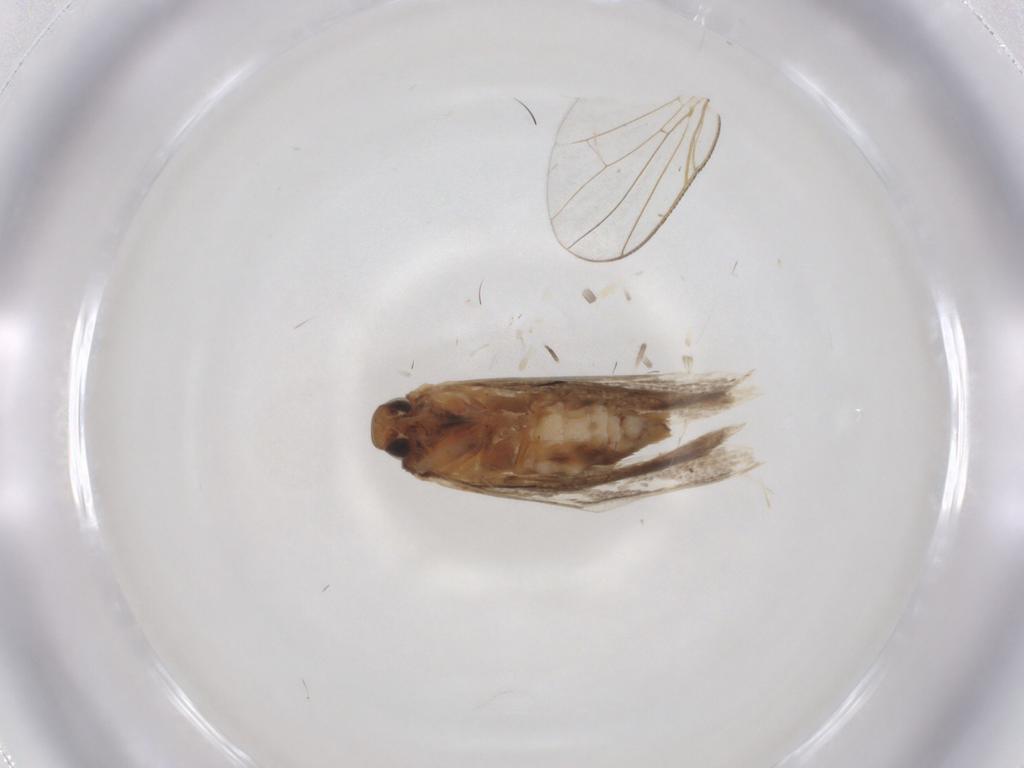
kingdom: Animalia
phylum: Arthropoda
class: Insecta
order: Lepidoptera
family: Gelechiidae
